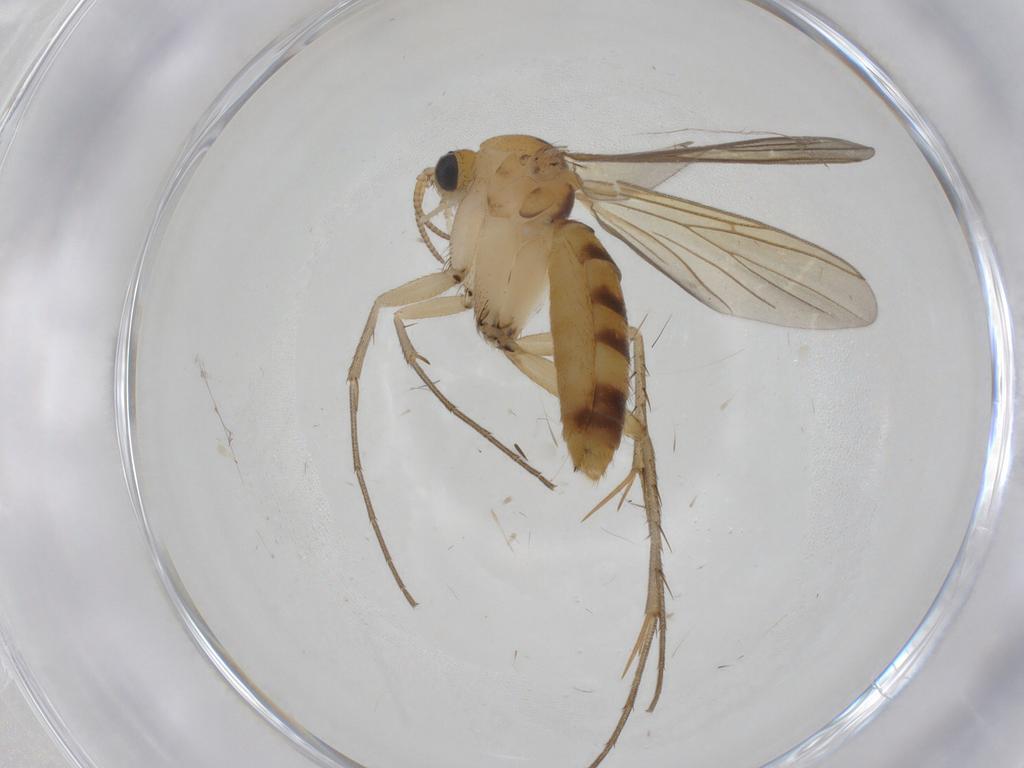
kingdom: Animalia
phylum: Arthropoda
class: Insecta
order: Diptera
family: Mycetophilidae
